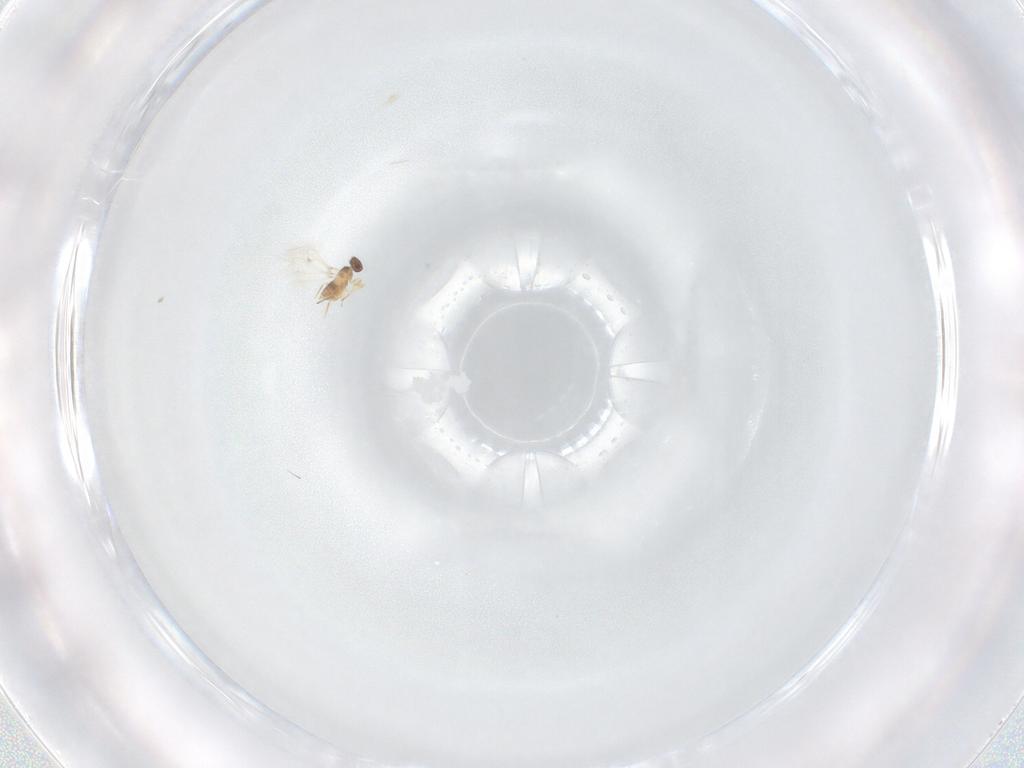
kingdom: Animalia
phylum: Arthropoda
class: Insecta
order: Hymenoptera
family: Mymaridae
